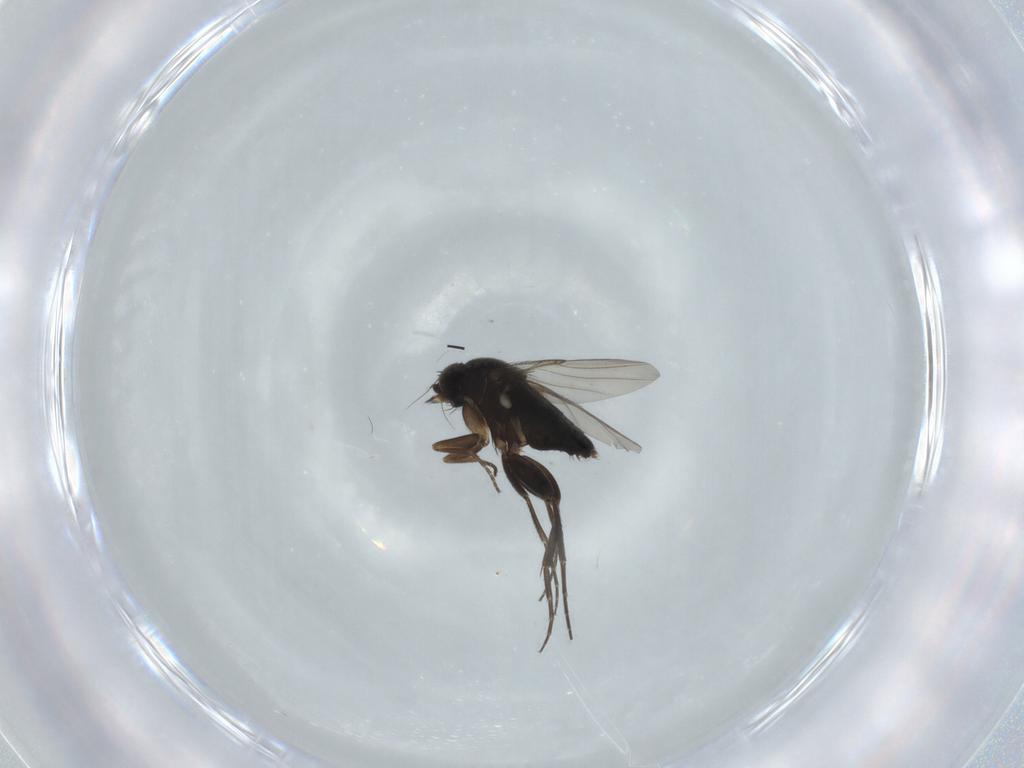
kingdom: Animalia
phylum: Arthropoda
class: Insecta
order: Diptera
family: Phoridae
